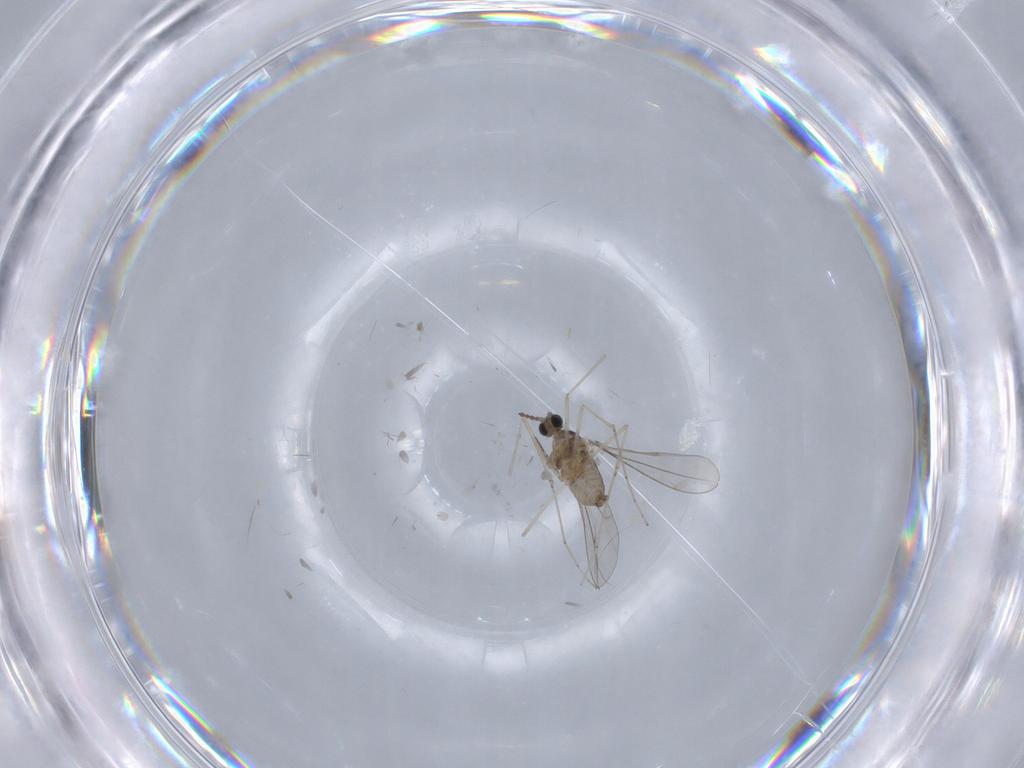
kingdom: Animalia
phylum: Arthropoda
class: Insecta
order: Diptera
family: Cecidomyiidae
